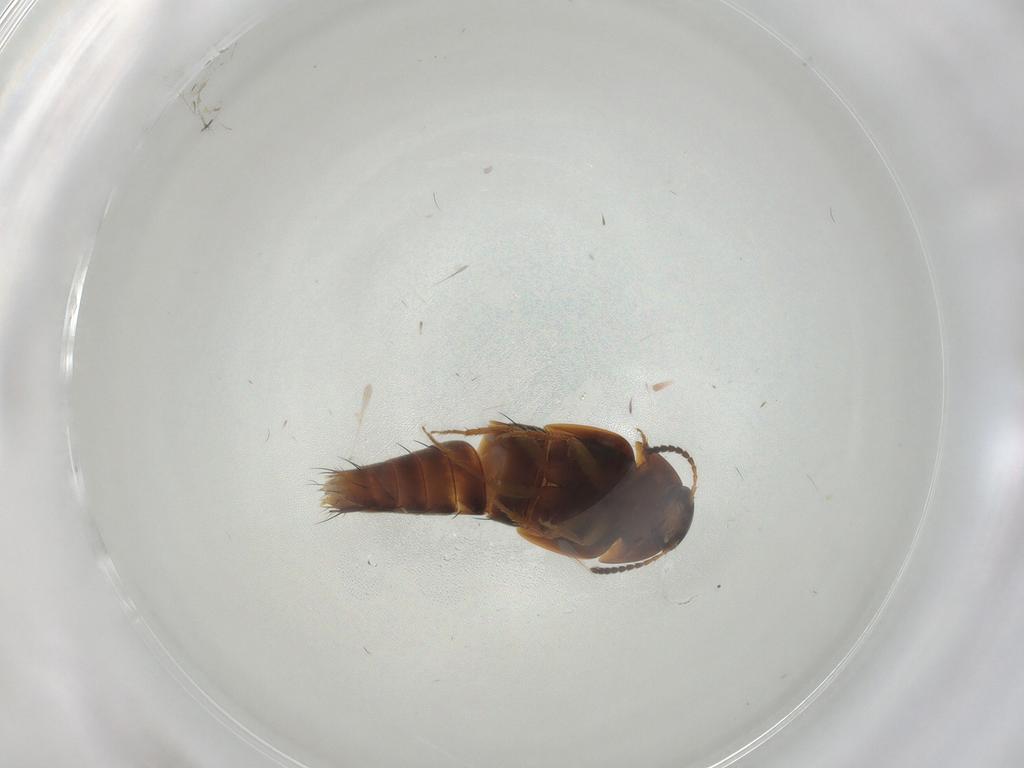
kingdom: Animalia
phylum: Arthropoda
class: Insecta
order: Coleoptera
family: Staphylinidae
